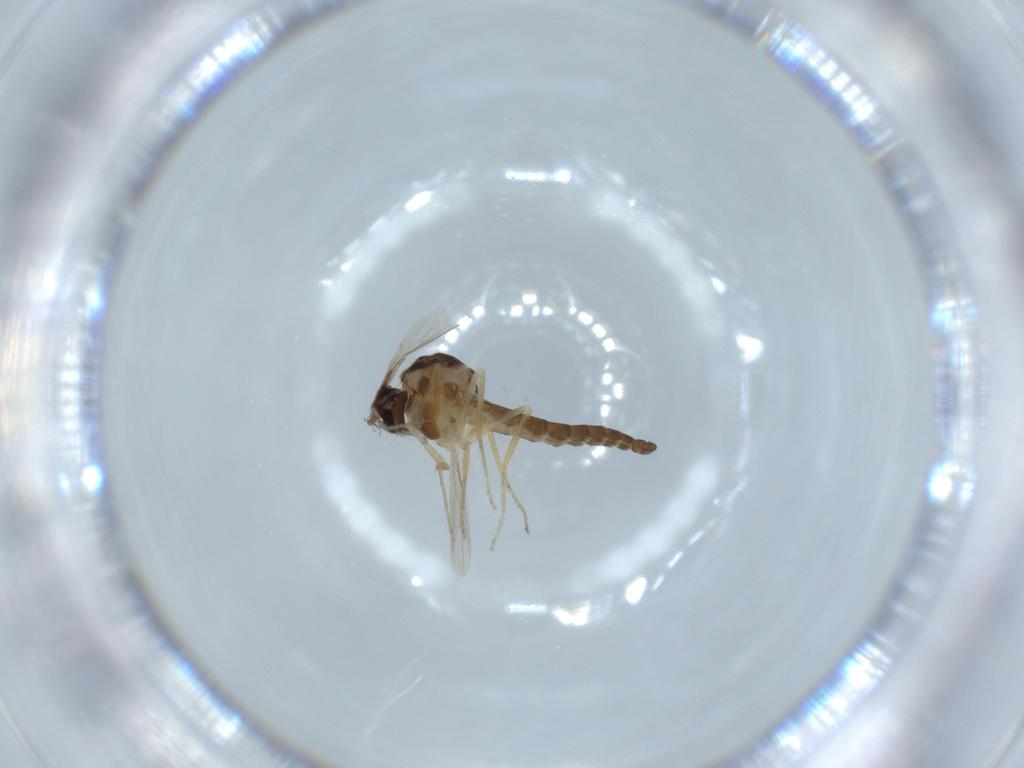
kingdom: Animalia
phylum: Arthropoda
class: Insecta
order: Diptera
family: Ceratopogonidae
